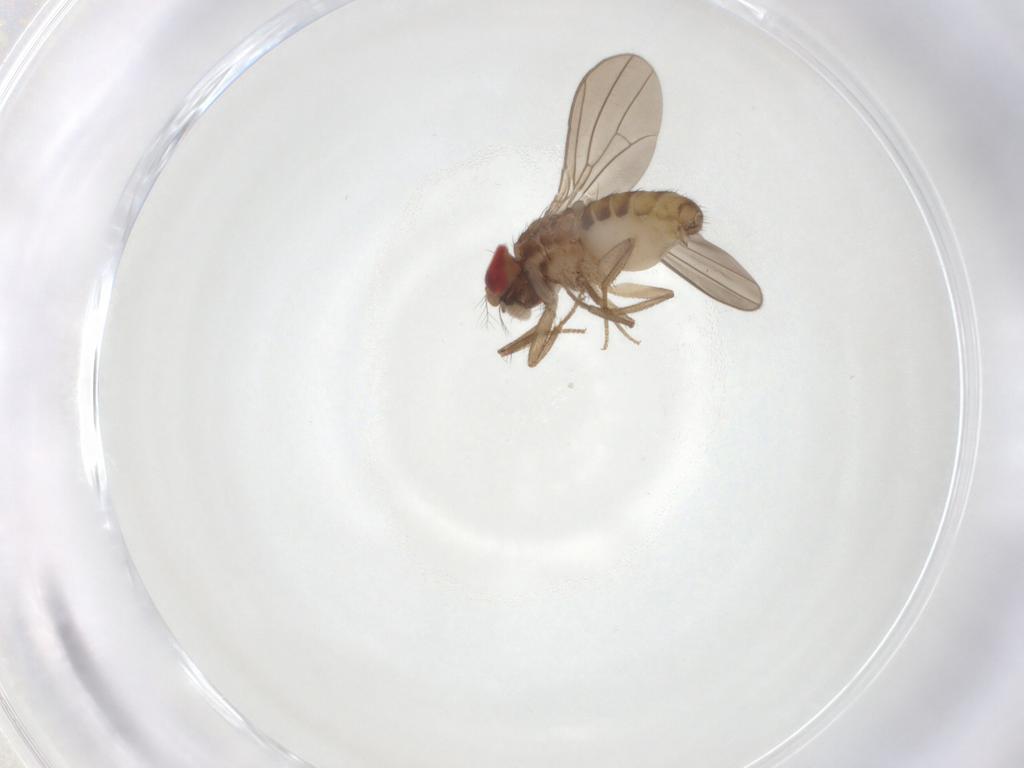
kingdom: Animalia
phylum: Arthropoda
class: Insecta
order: Diptera
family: Drosophilidae
